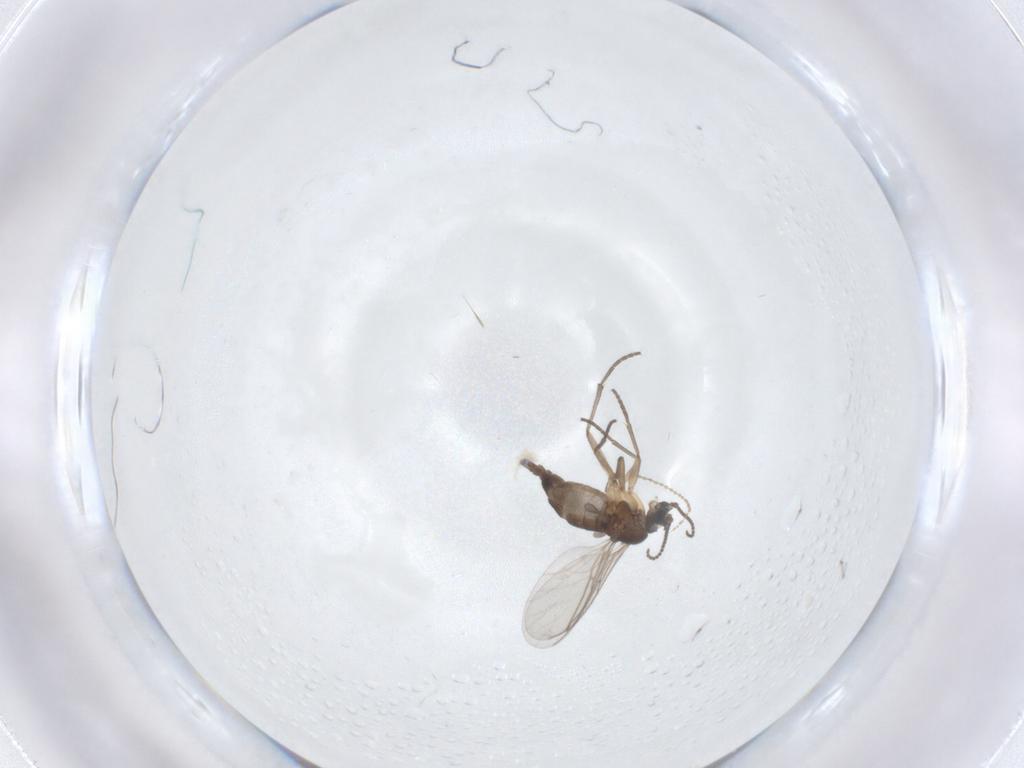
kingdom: Animalia
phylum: Arthropoda
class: Insecta
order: Diptera
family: Sciaridae
